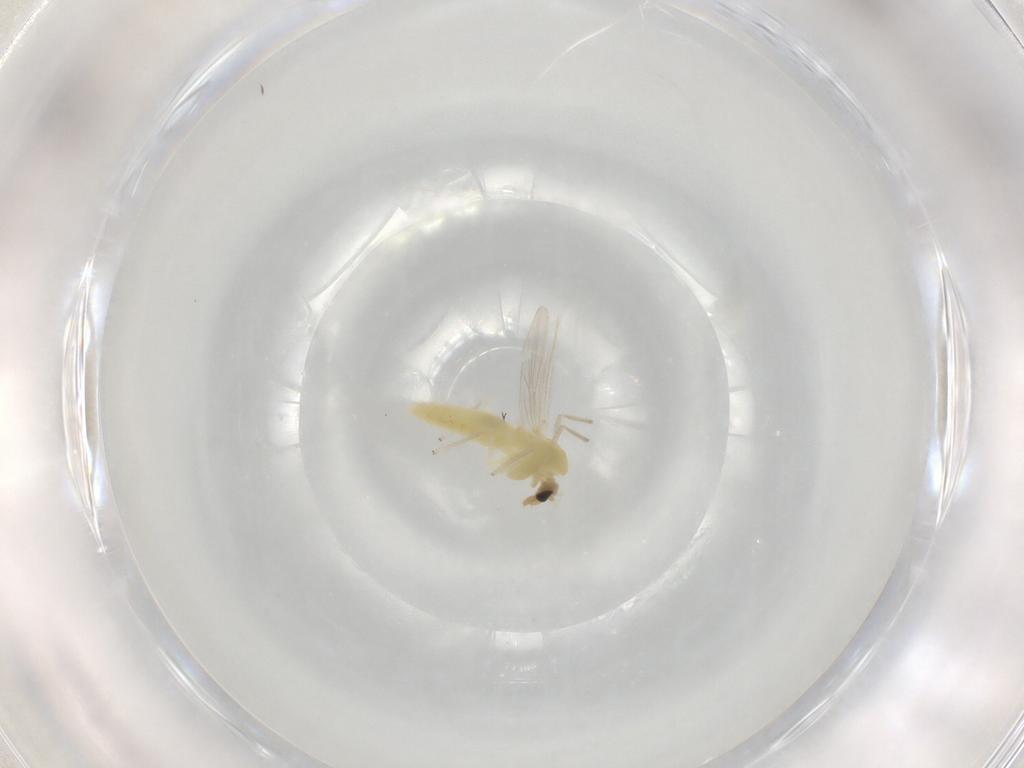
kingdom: Animalia
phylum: Arthropoda
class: Insecta
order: Diptera
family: Chironomidae
